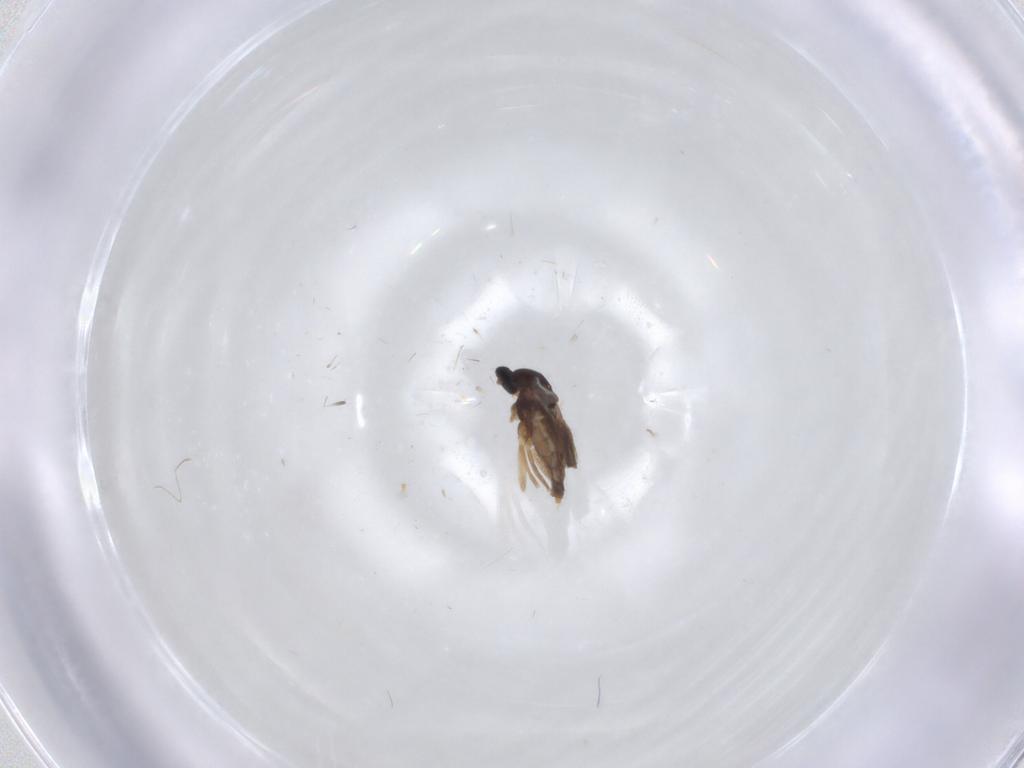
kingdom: Animalia
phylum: Arthropoda
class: Insecta
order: Diptera
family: Cecidomyiidae
